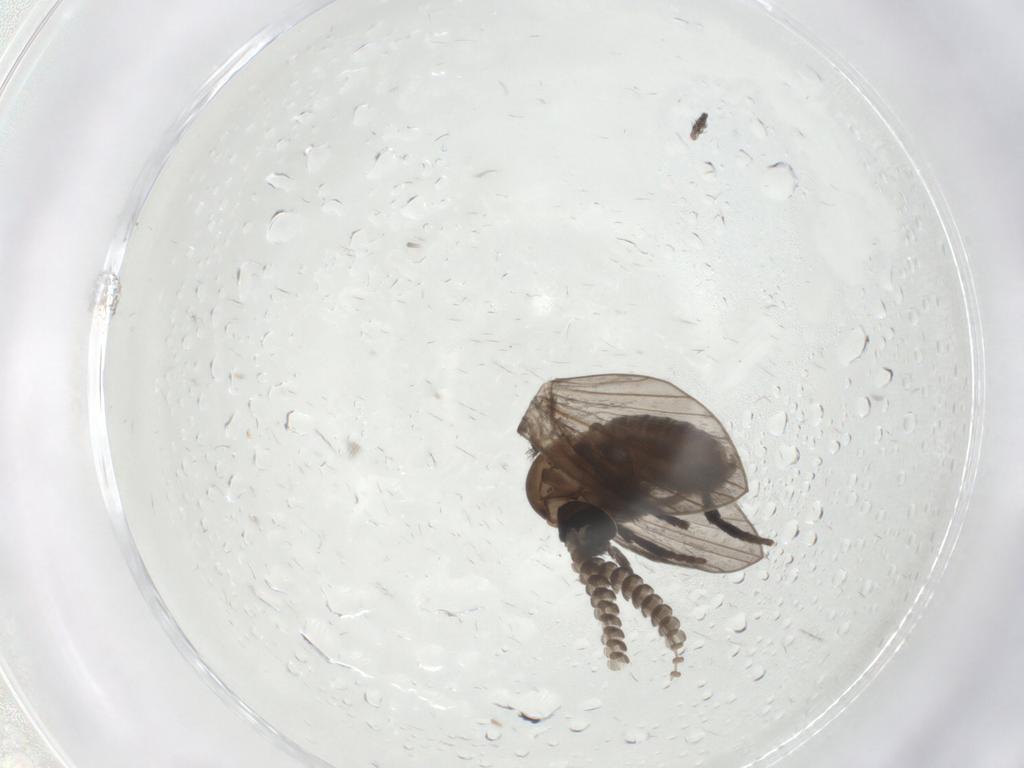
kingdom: Animalia
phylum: Arthropoda
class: Insecta
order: Diptera
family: Psychodidae
